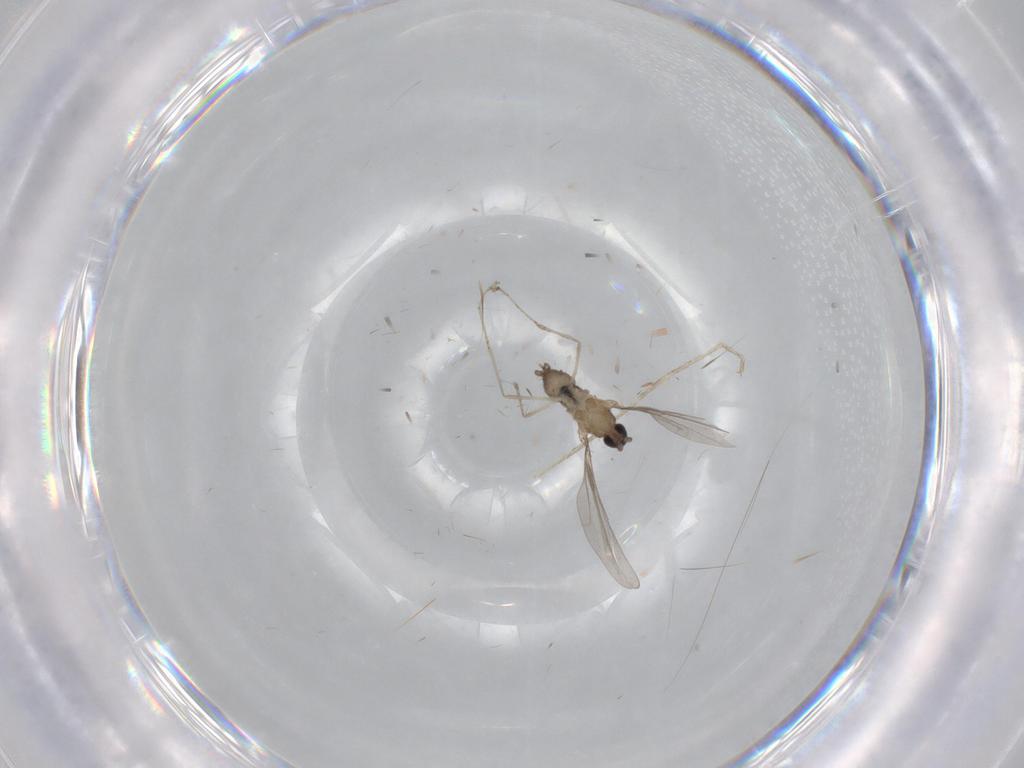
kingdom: Animalia
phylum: Arthropoda
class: Insecta
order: Diptera
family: Cecidomyiidae
